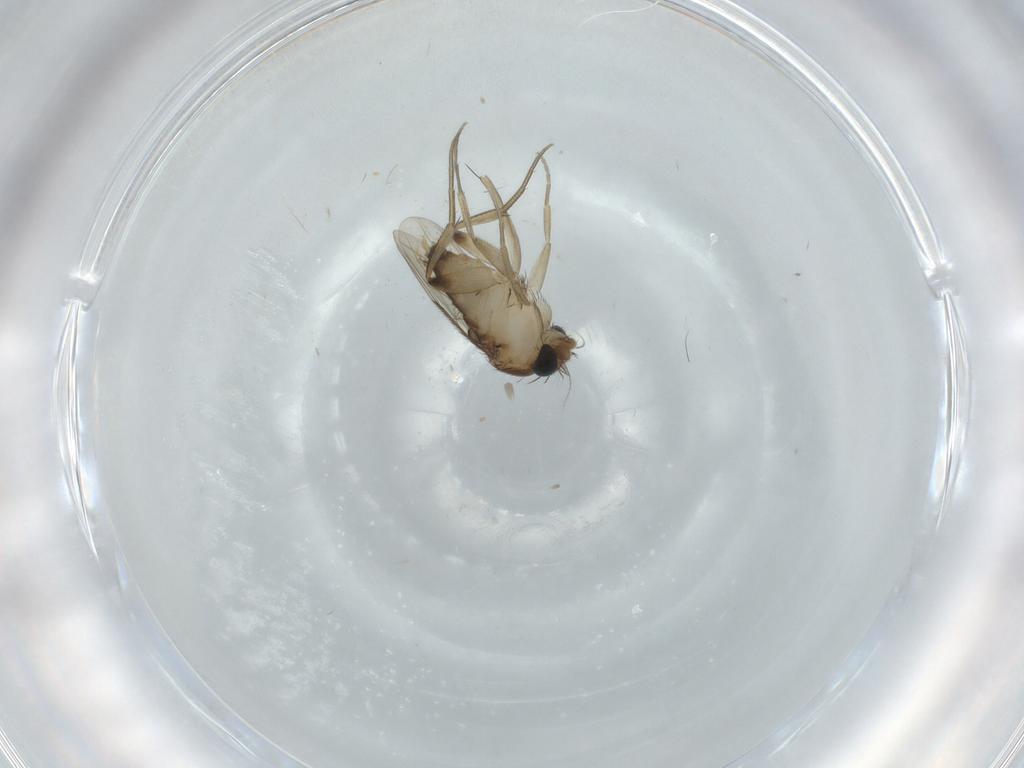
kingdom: Animalia
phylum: Arthropoda
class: Insecta
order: Diptera
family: Phoridae
